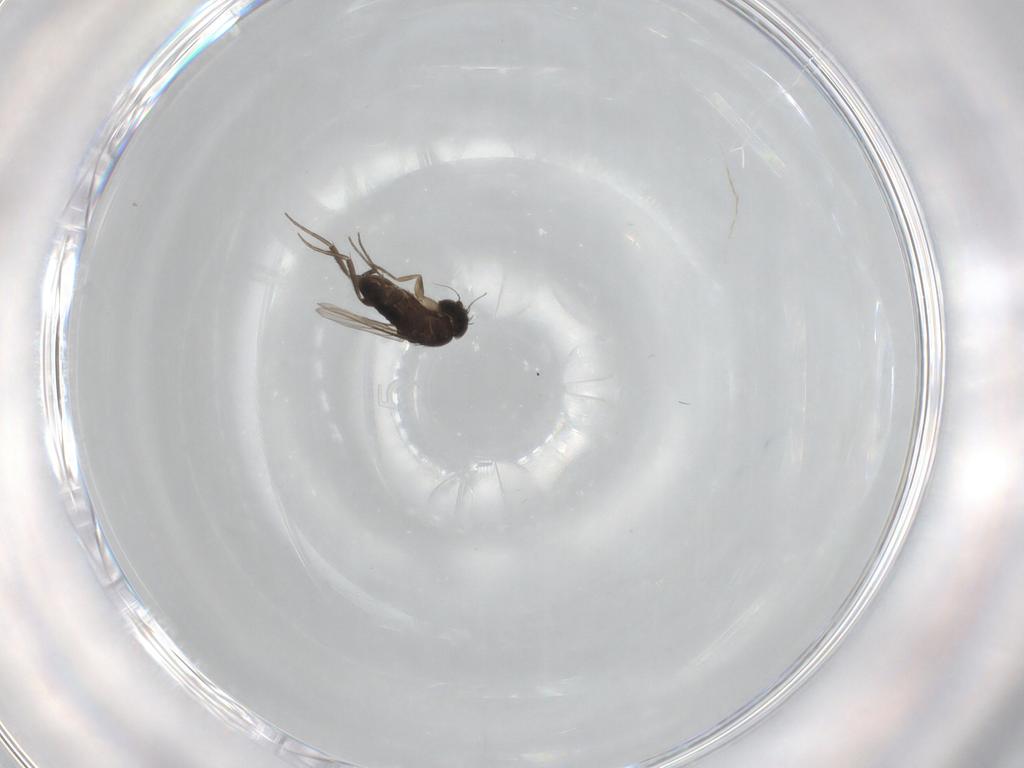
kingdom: Animalia
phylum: Arthropoda
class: Insecta
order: Diptera
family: Phoridae
